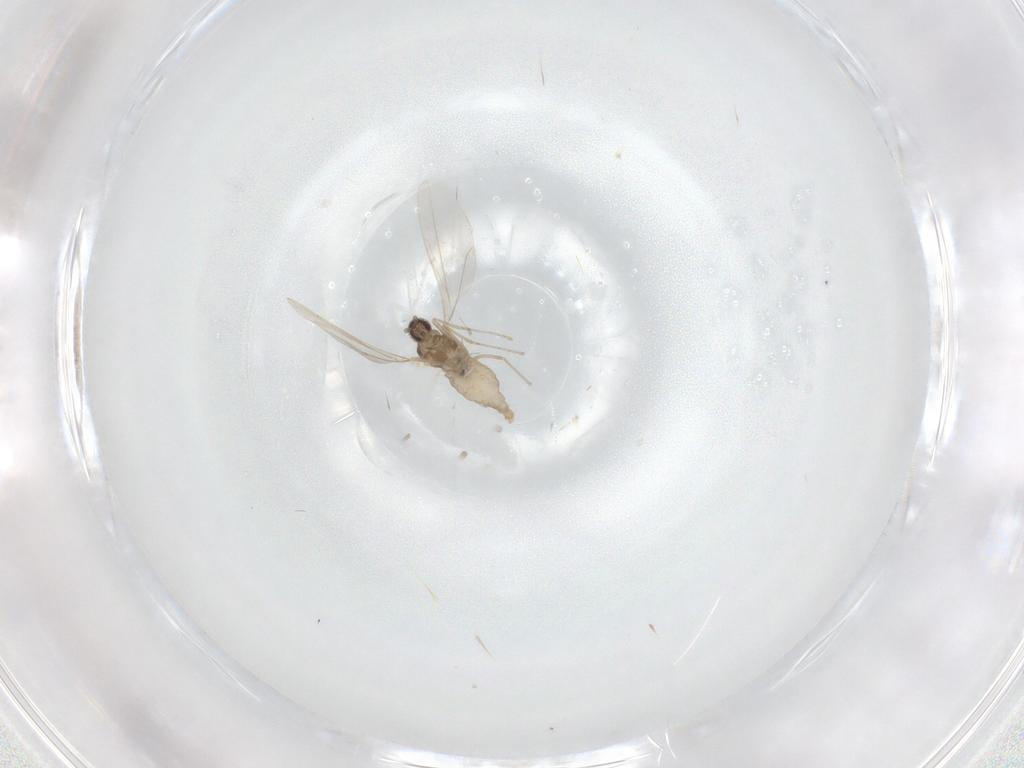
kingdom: Animalia
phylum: Arthropoda
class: Insecta
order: Diptera
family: Cecidomyiidae
